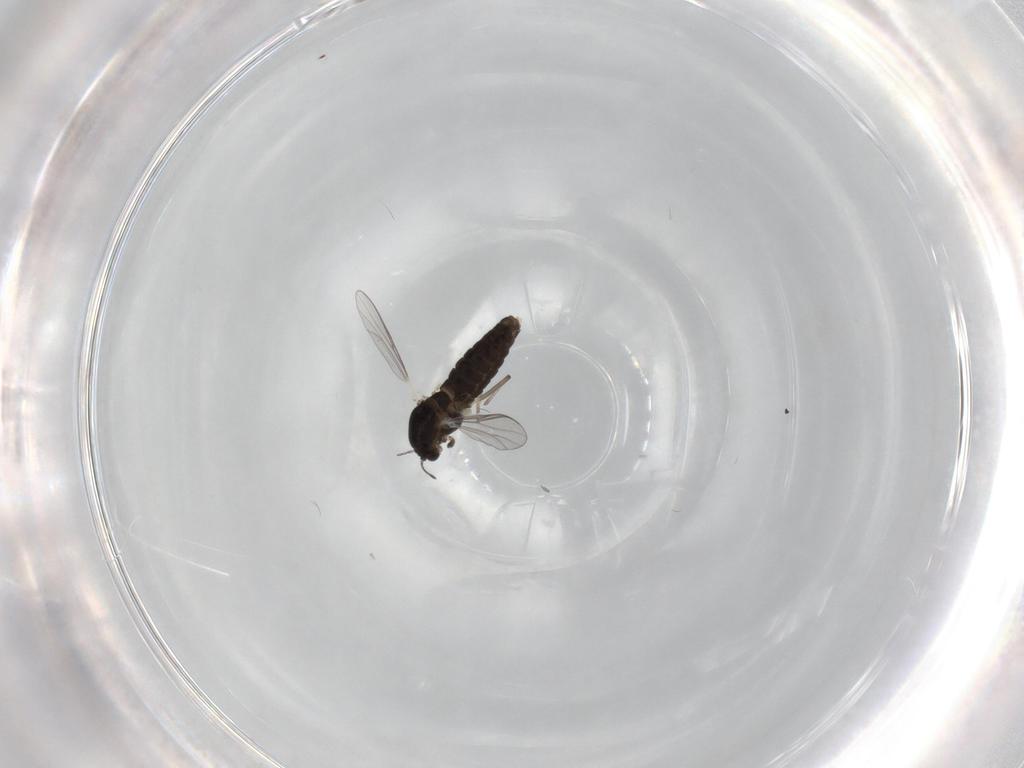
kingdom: Animalia
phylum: Arthropoda
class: Insecta
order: Diptera
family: Chironomidae
